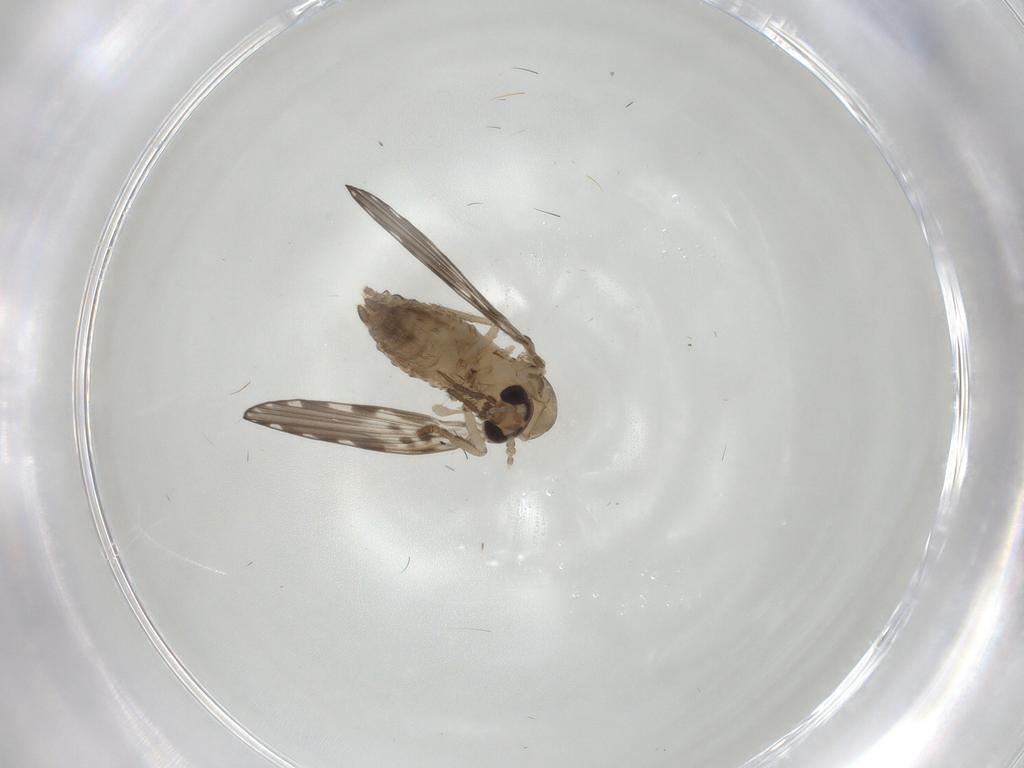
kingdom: Animalia
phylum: Arthropoda
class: Insecta
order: Diptera
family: Psychodidae
